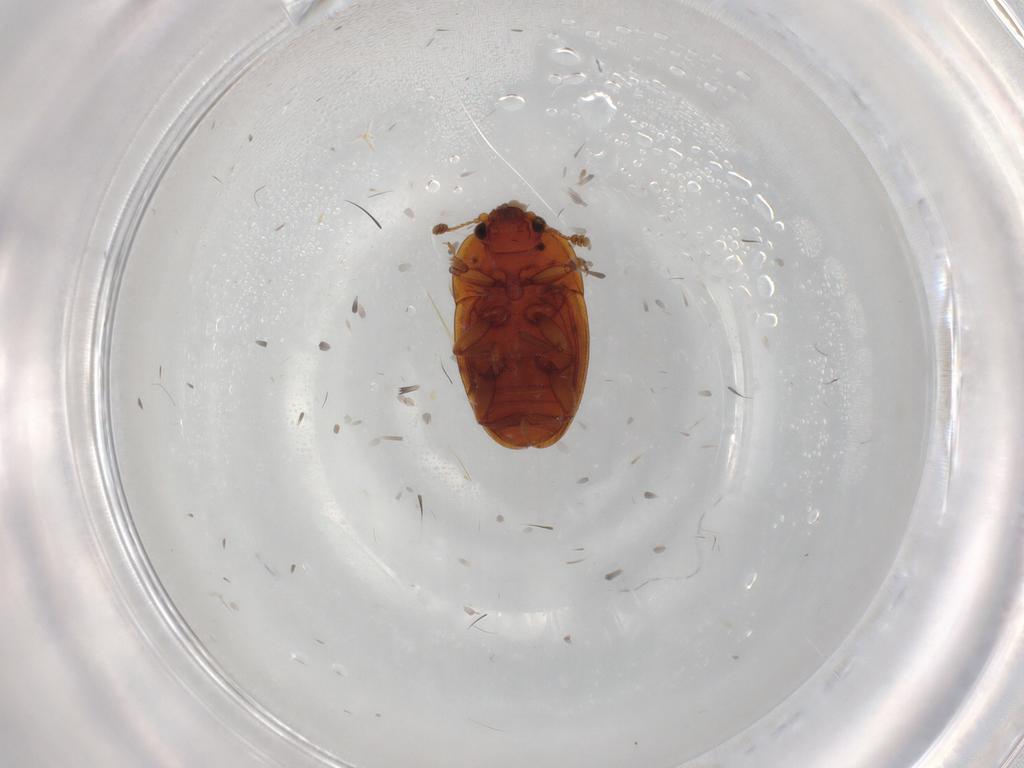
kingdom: Animalia
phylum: Arthropoda
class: Insecta
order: Coleoptera
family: Nitidulidae
